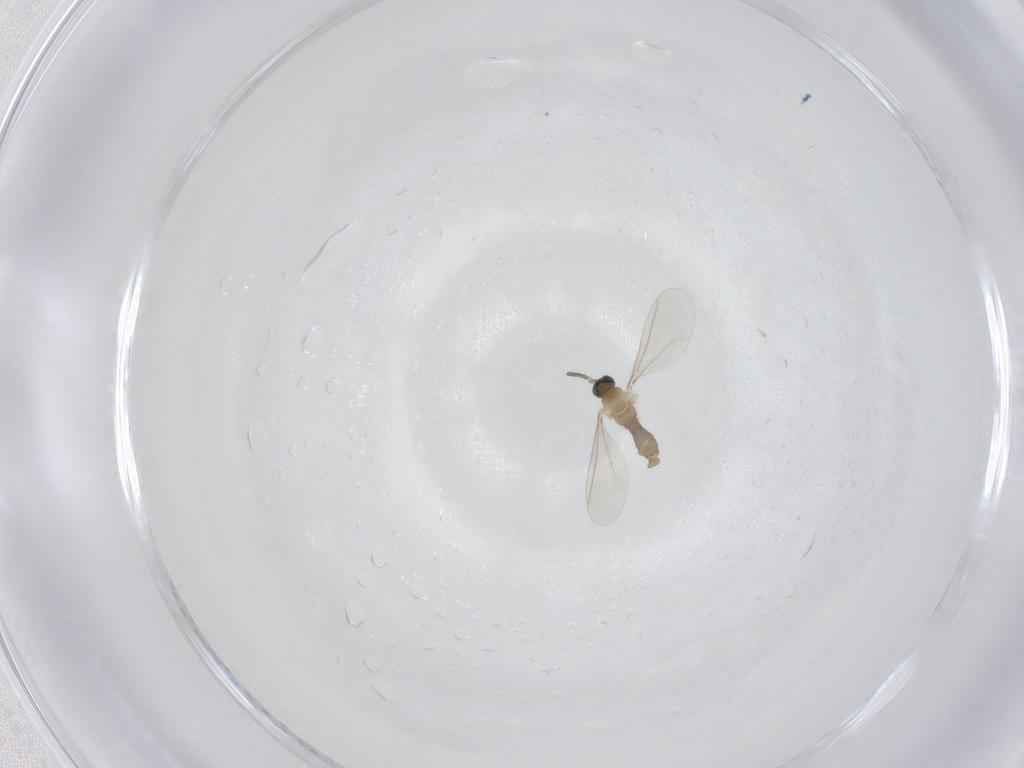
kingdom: Animalia
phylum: Arthropoda
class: Insecta
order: Diptera
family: Cecidomyiidae
